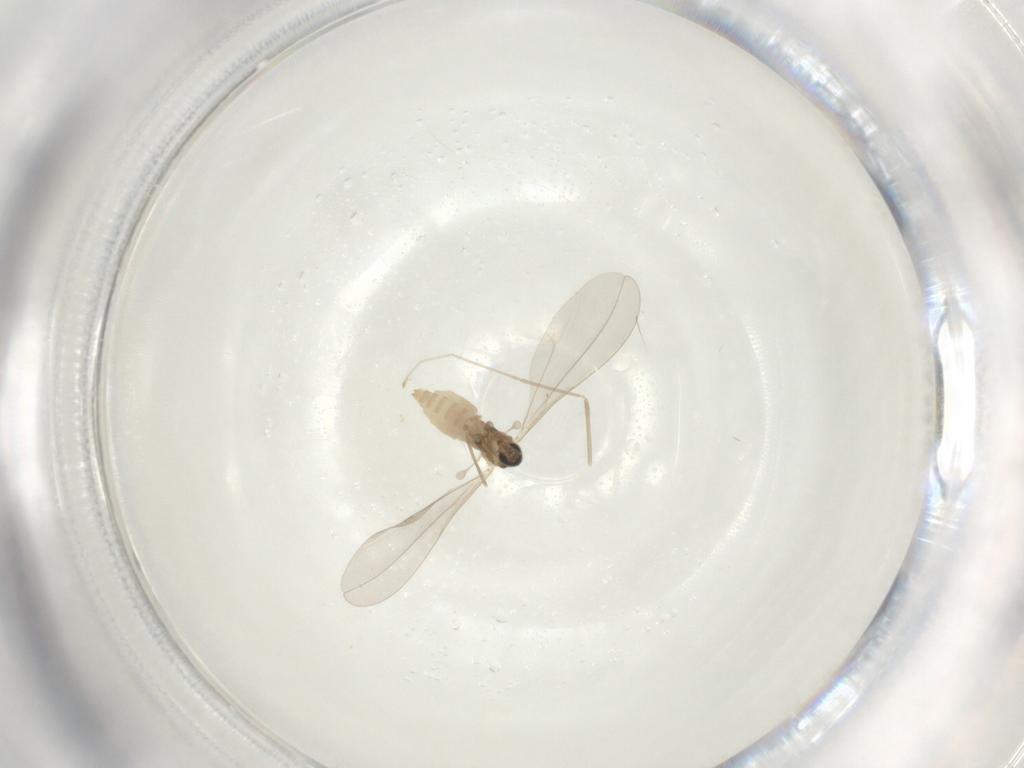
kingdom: Animalia
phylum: Arthropoda
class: Insecta
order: Diptera
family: Cecidomyiidae
